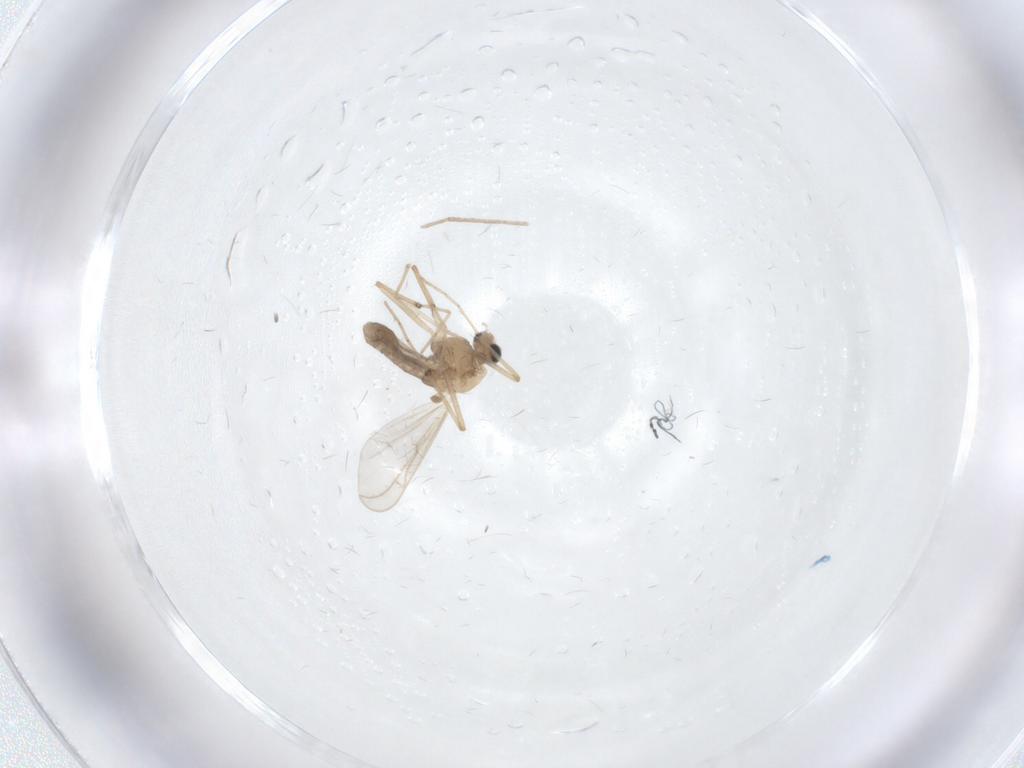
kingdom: Animalia
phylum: Arthropoda
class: Insecta
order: Diptera
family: Chironomidae
